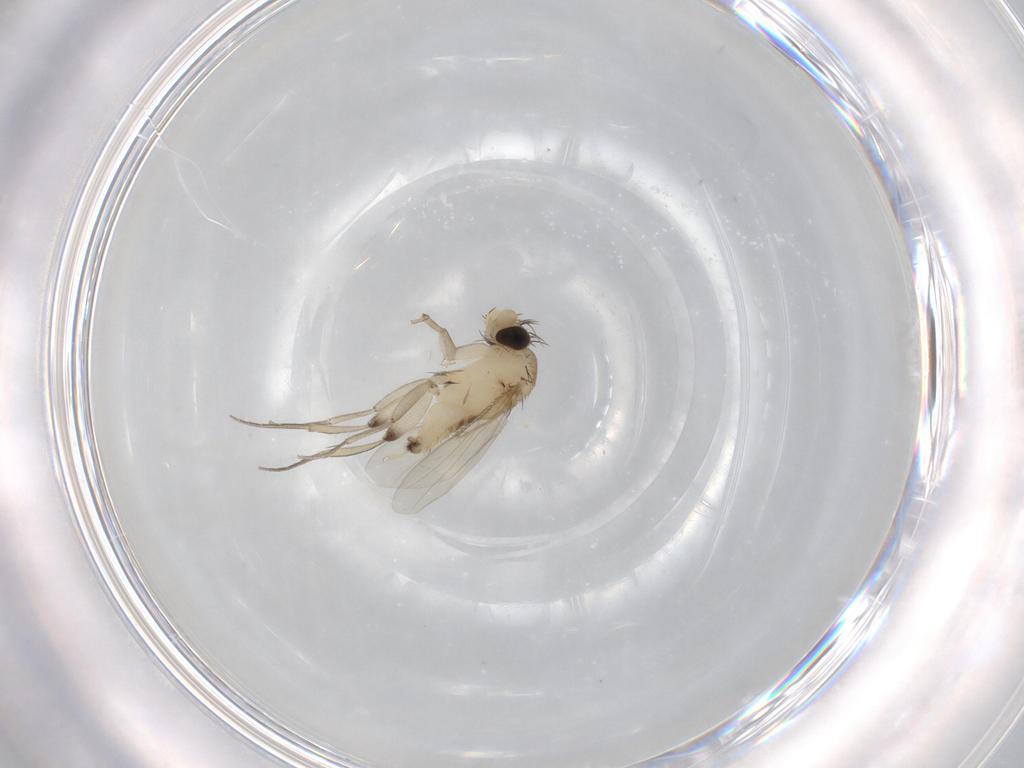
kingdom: Animalia
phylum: Arthropoda
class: Insecta
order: Diptera
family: Phoridae
